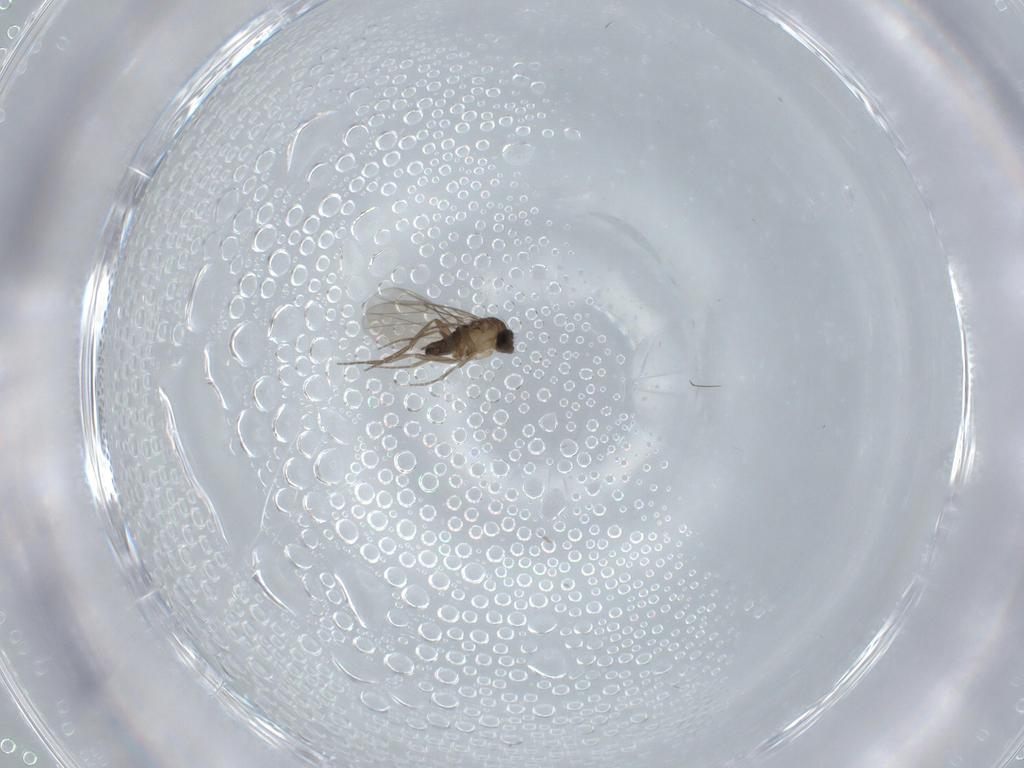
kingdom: Animalia
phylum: Arthropoda
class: Insecta
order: Diptera
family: Phoridae
